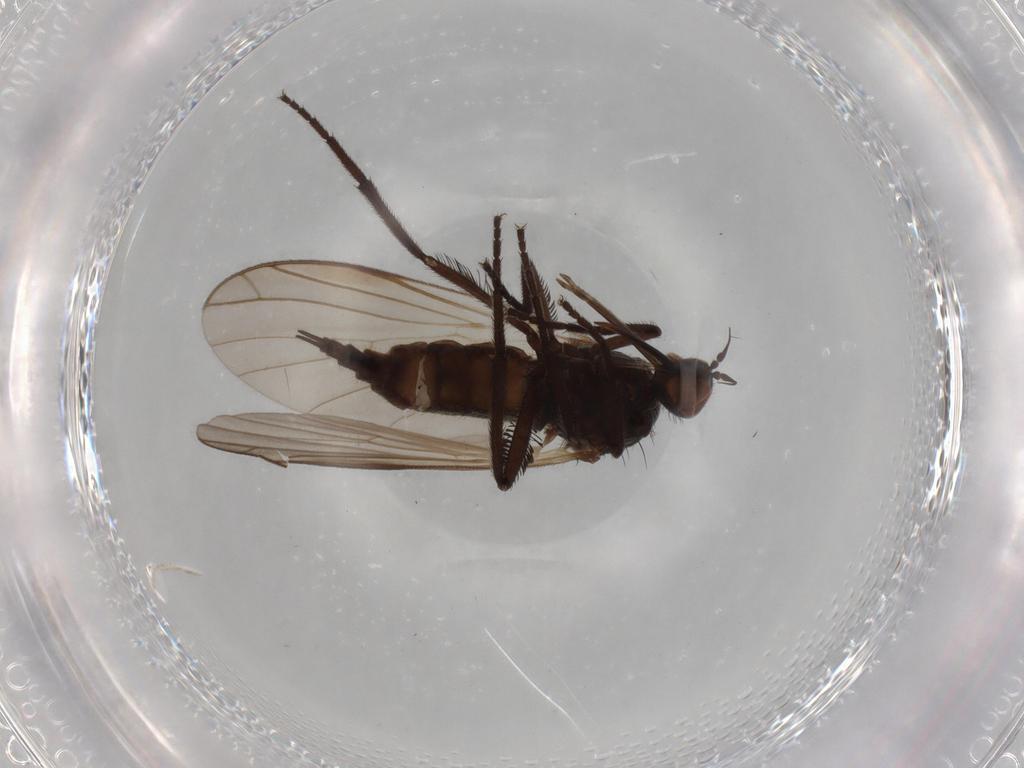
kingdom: Animalia
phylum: Arthropoda
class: Insecta
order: Diptera
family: Empididae
